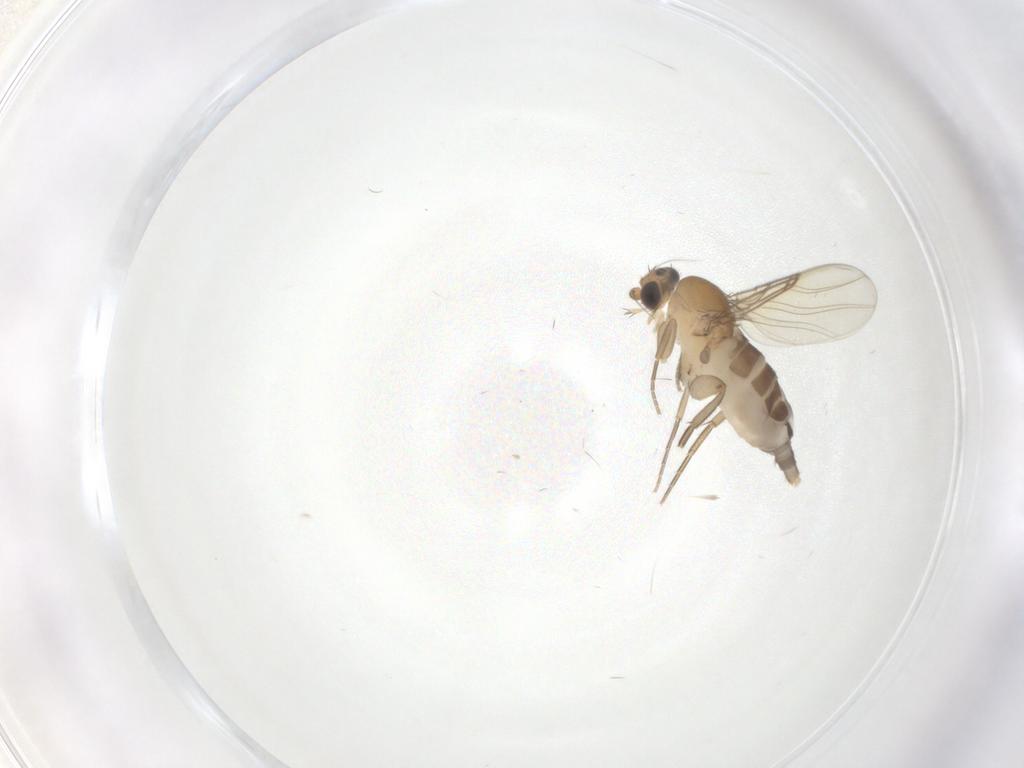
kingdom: Animalia
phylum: Arthropoda
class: Insecta
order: Diptera
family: Phoridae
